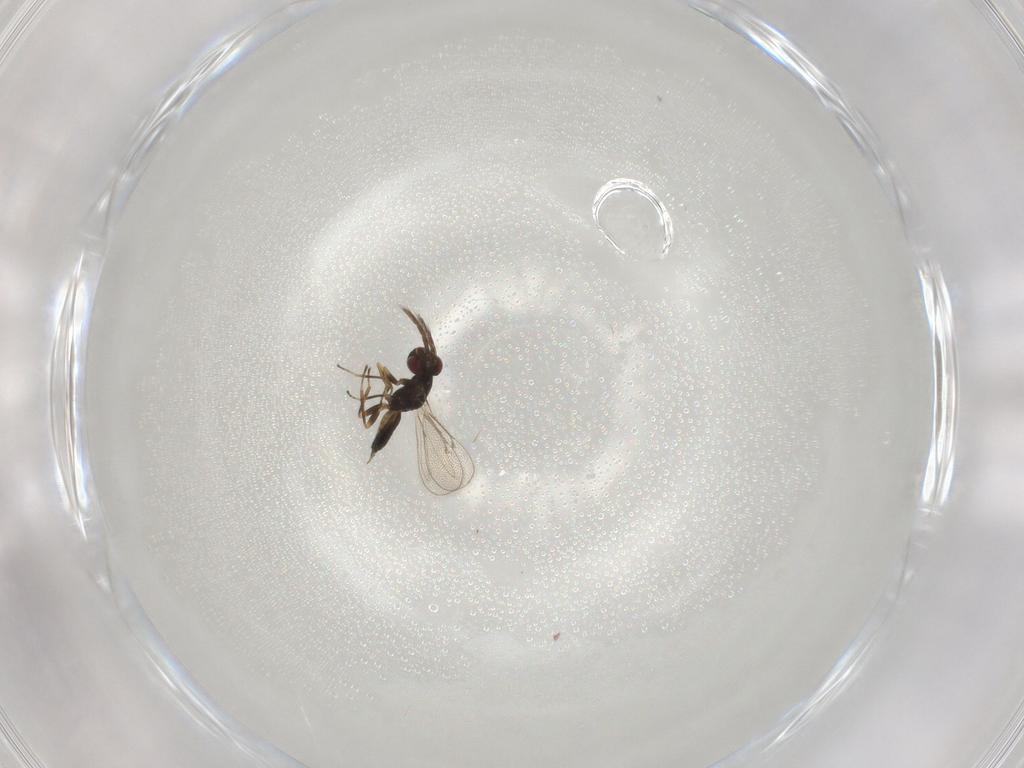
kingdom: Animalia
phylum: Arthropoda
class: Insecta
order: Hymenoptera
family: Eulophidae
